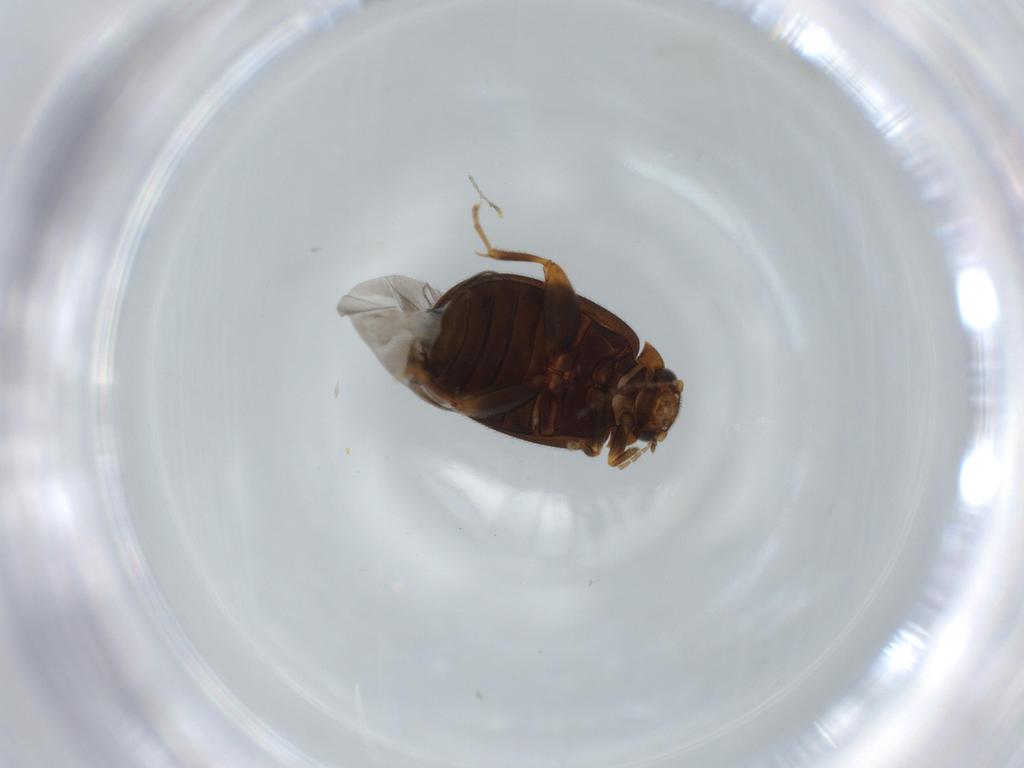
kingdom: Animalia
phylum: Arthropoda
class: Insecta
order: Coleoptera
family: Scirtidae
